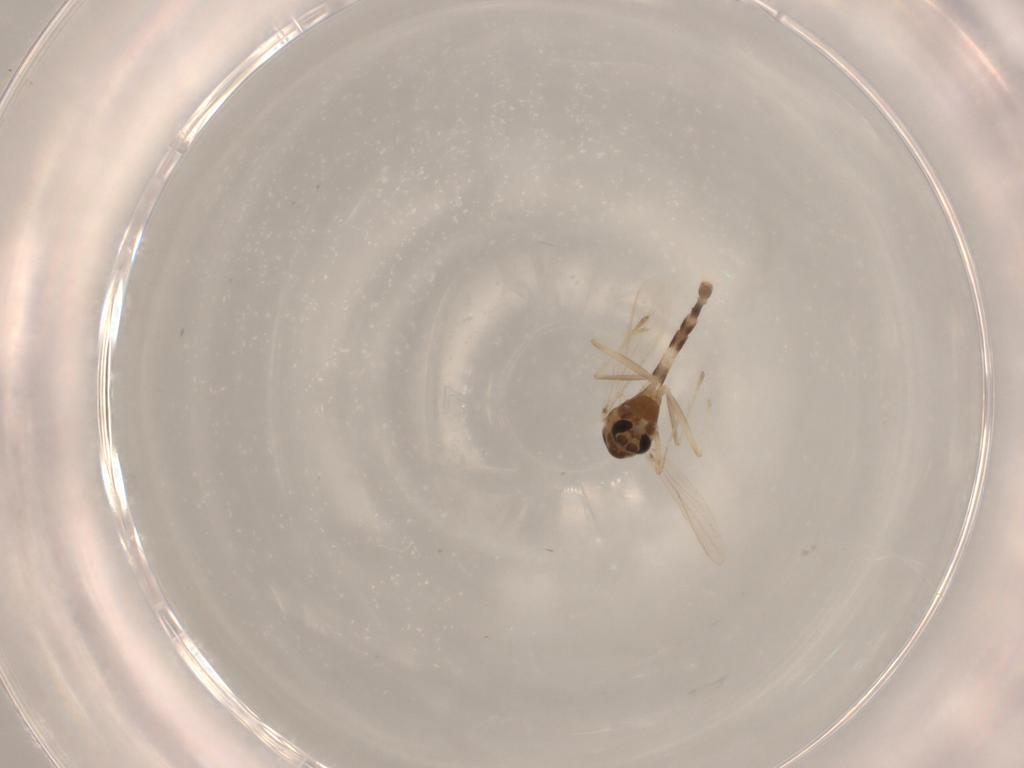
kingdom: Animalia
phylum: Arthropoda
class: Insecta
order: Diptera
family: Chironomidae
